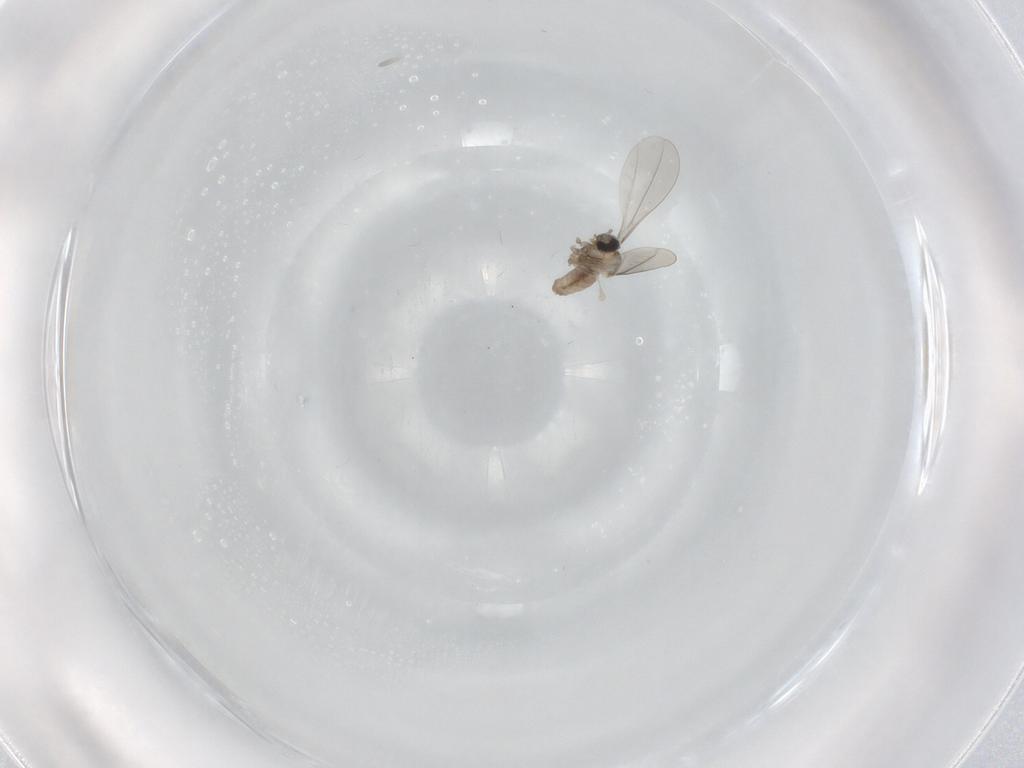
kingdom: Animalia
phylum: Arthropoda
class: Insecta
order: Diptera
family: Cecidomyiidae
